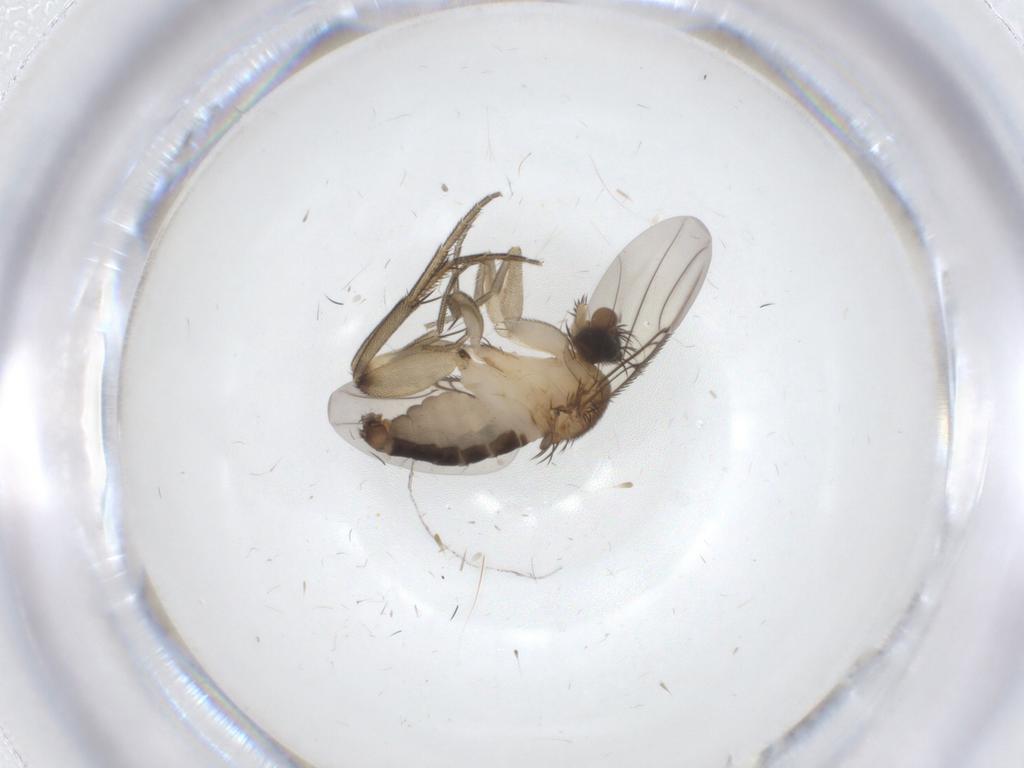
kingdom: Animalia
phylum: Arthropoda
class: Insecta
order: Diptera
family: Phoridae
